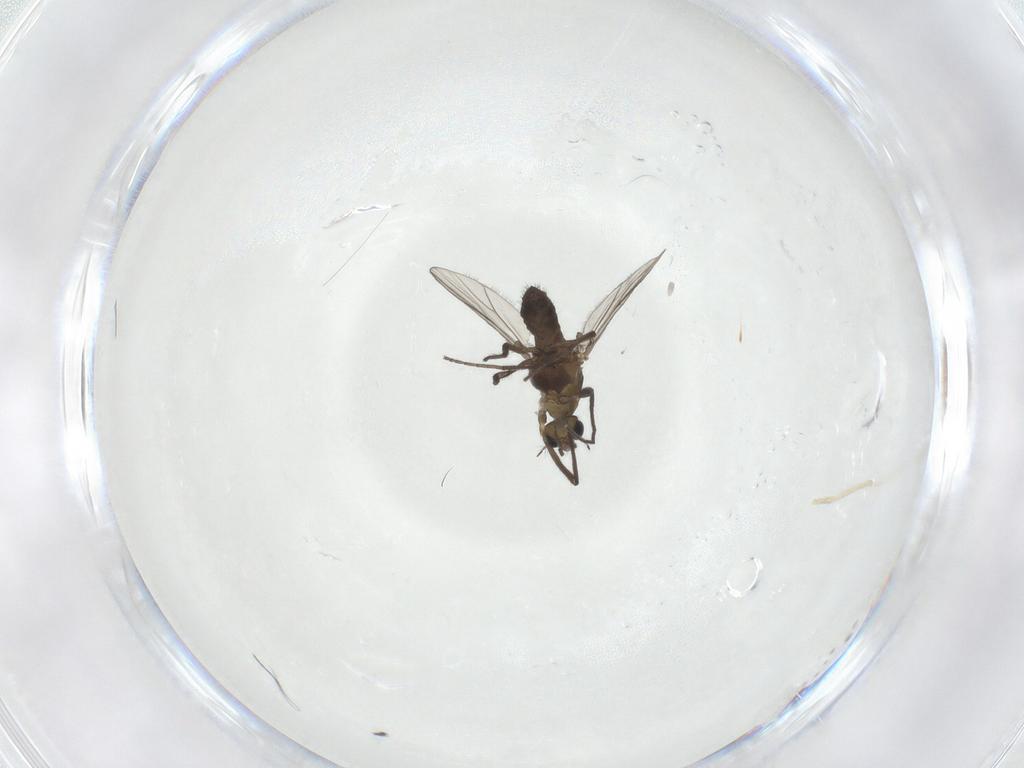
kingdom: Animalia
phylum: Arthropoda
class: Insecta
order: Diptera
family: Chironomidae
